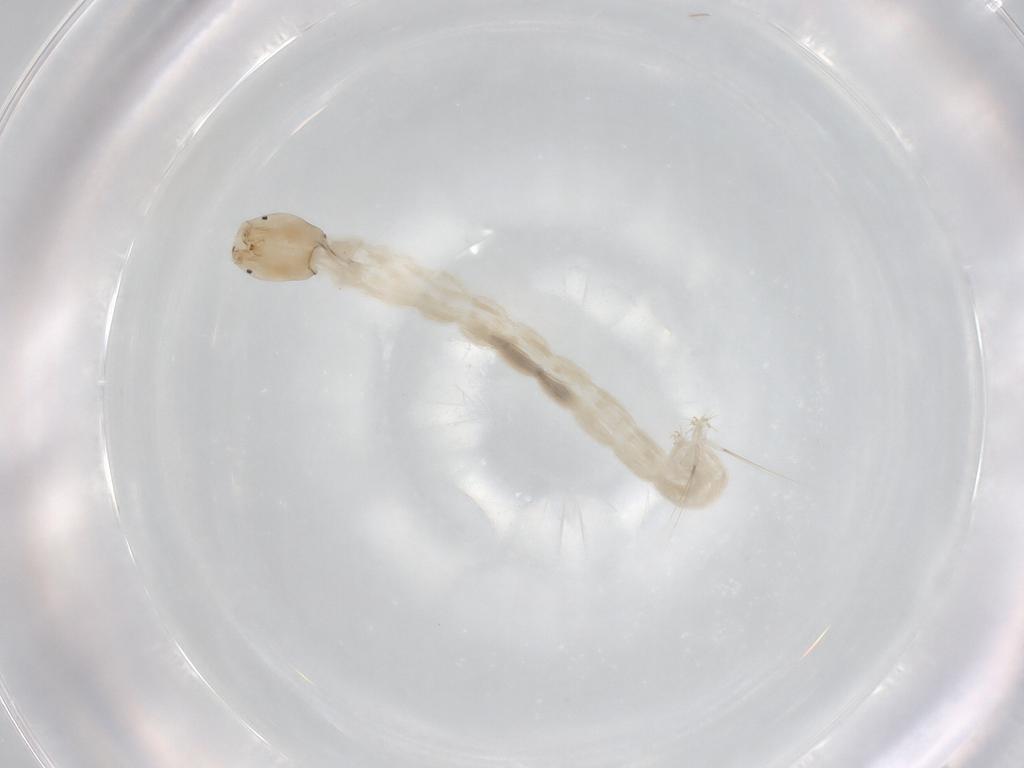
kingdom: Animalia
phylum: Arthropoda
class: Insecta
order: Diptera
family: Chironomidae
